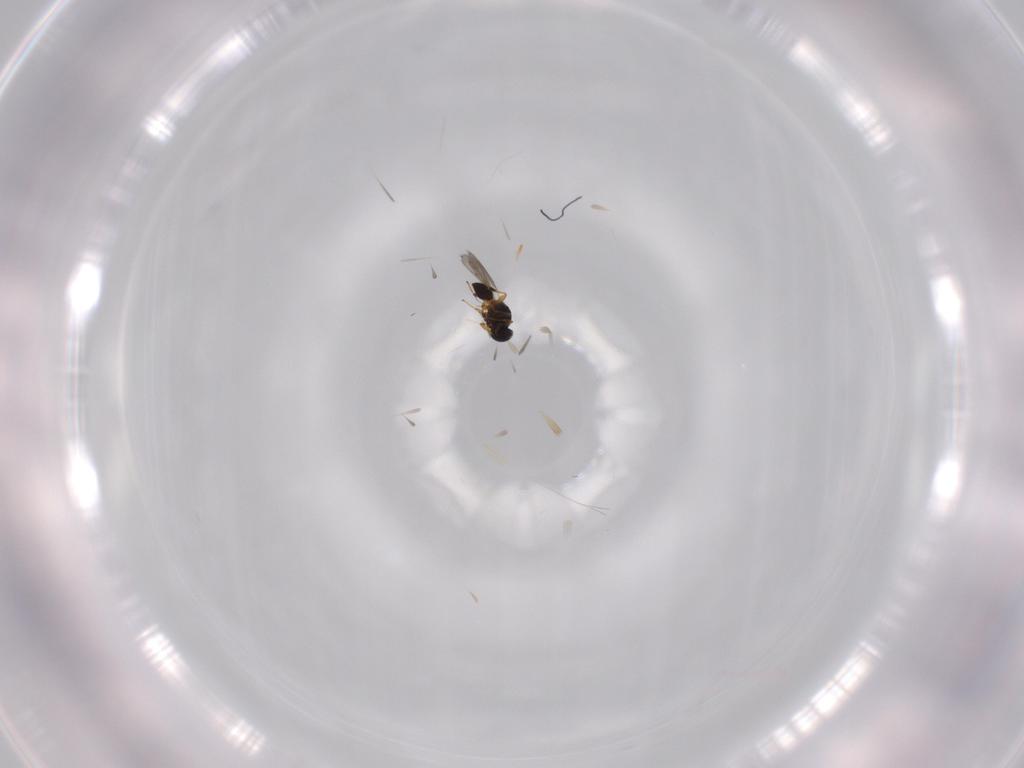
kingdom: Animalia
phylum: Arthropoda
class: Insecta
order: Hymenoptera
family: Platygastridae
